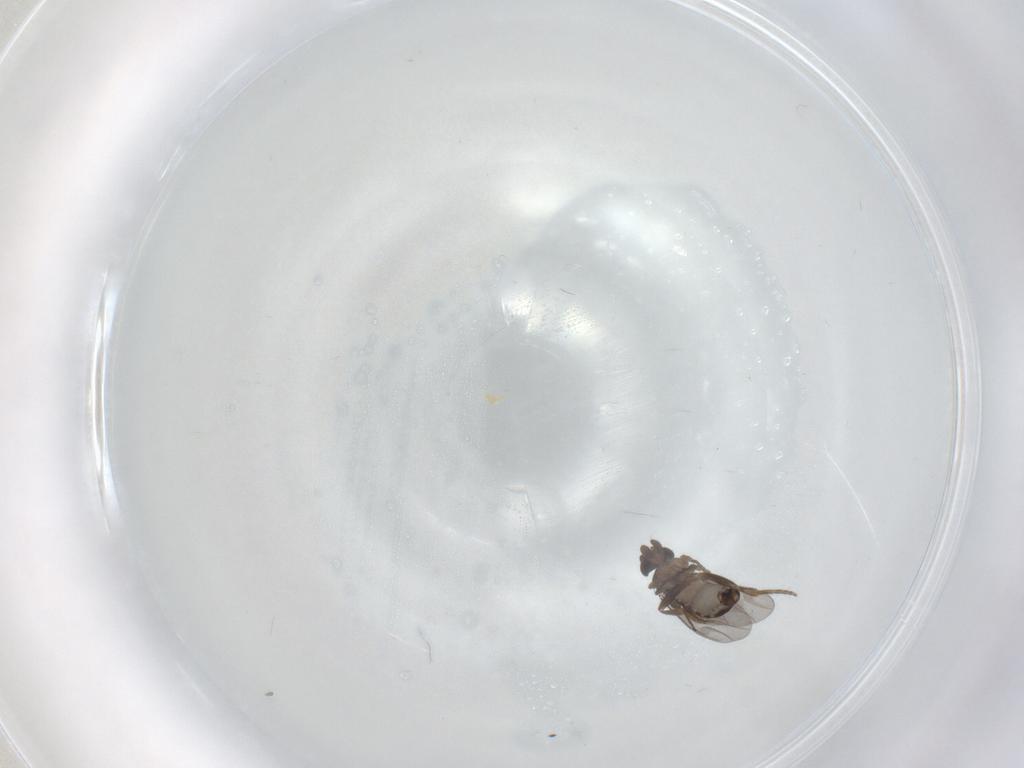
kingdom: Animalia
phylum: Arthropoda
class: Insecta
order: Diptera
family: Phoridae
